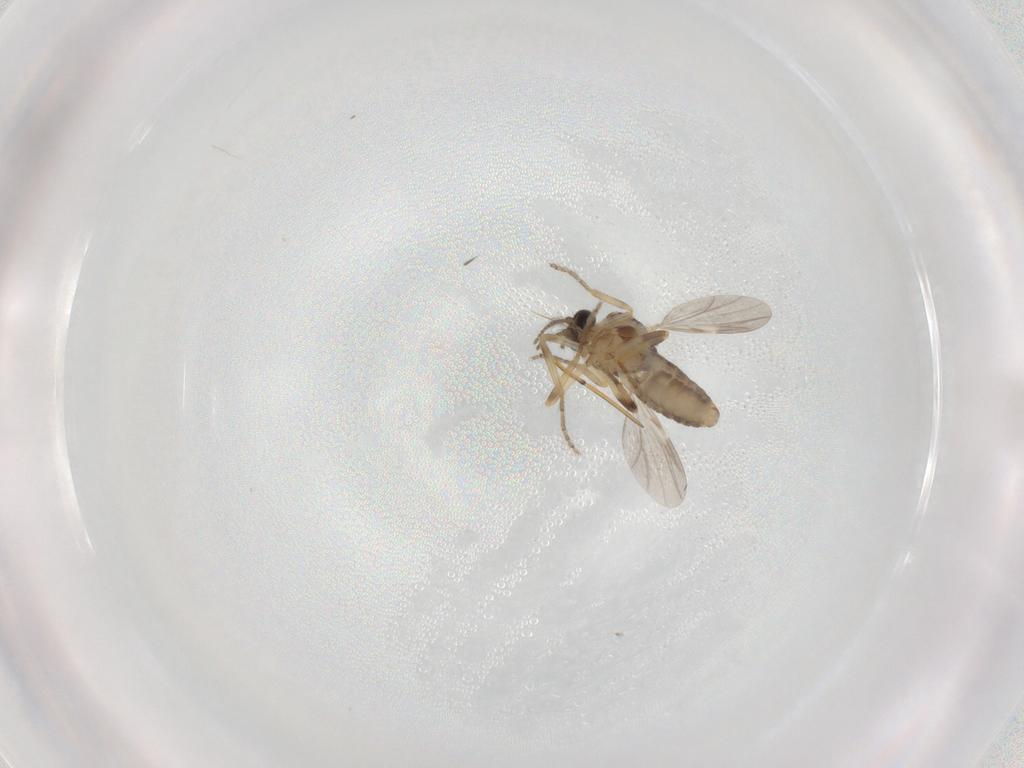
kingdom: Animalia
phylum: Arthropoda
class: Insecta
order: Diptera
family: Ceratopogonidae
